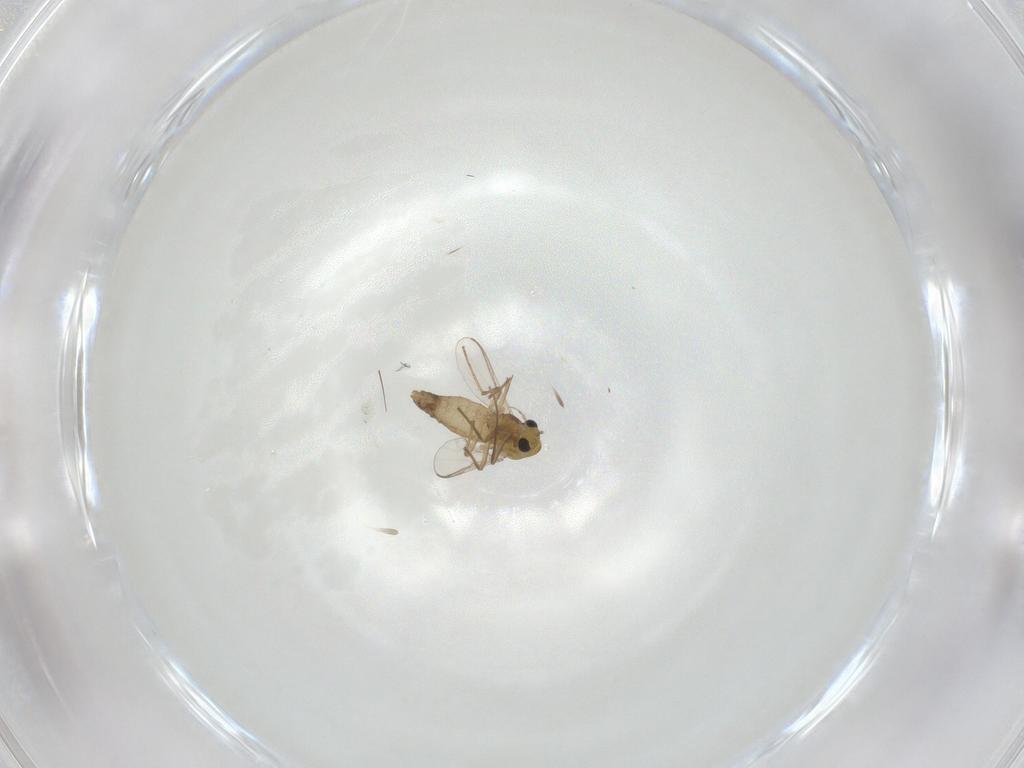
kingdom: Animalia
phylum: Arthropoda
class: Insecta
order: Diptera
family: Chironomidae
